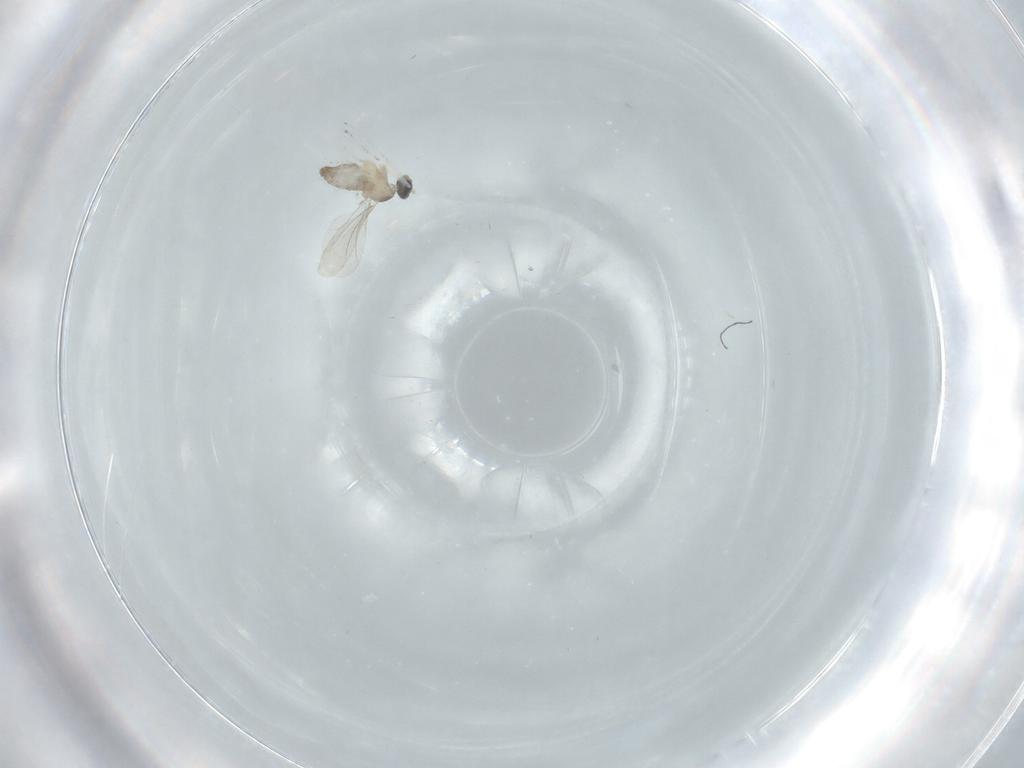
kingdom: Animalia
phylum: Arthropoda
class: Insecta
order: Diptera
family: Cecidomyiidae
